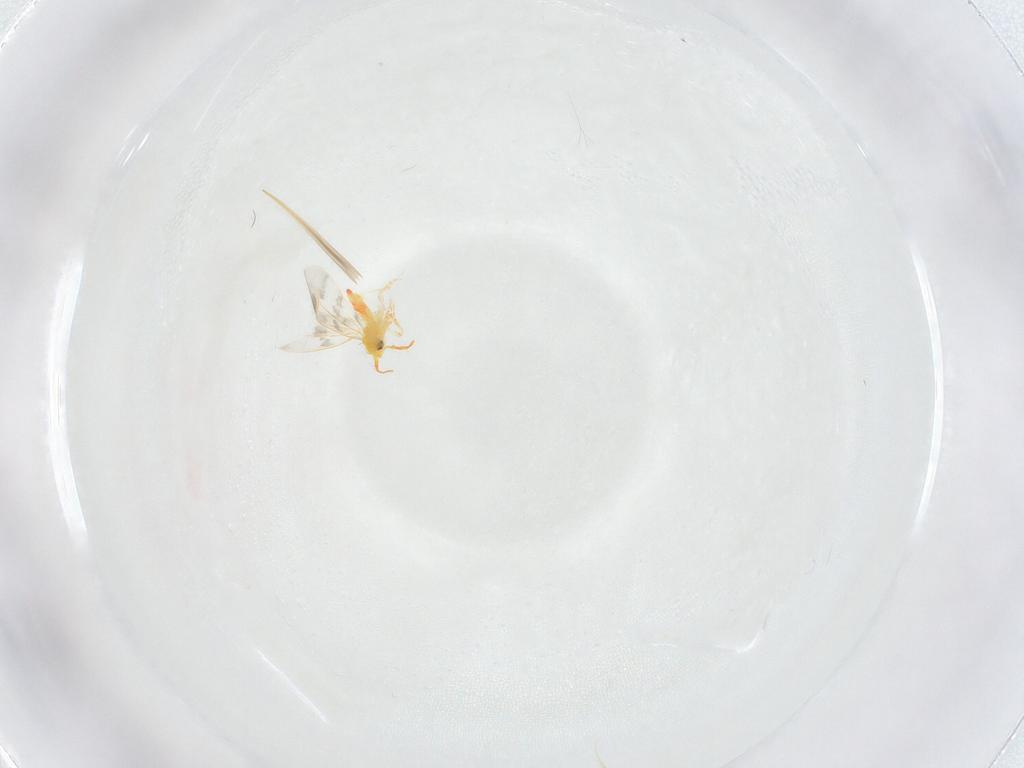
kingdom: Animalia
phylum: Arthropoda
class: Insecta
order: Hemiptera
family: Aleyrodidae
